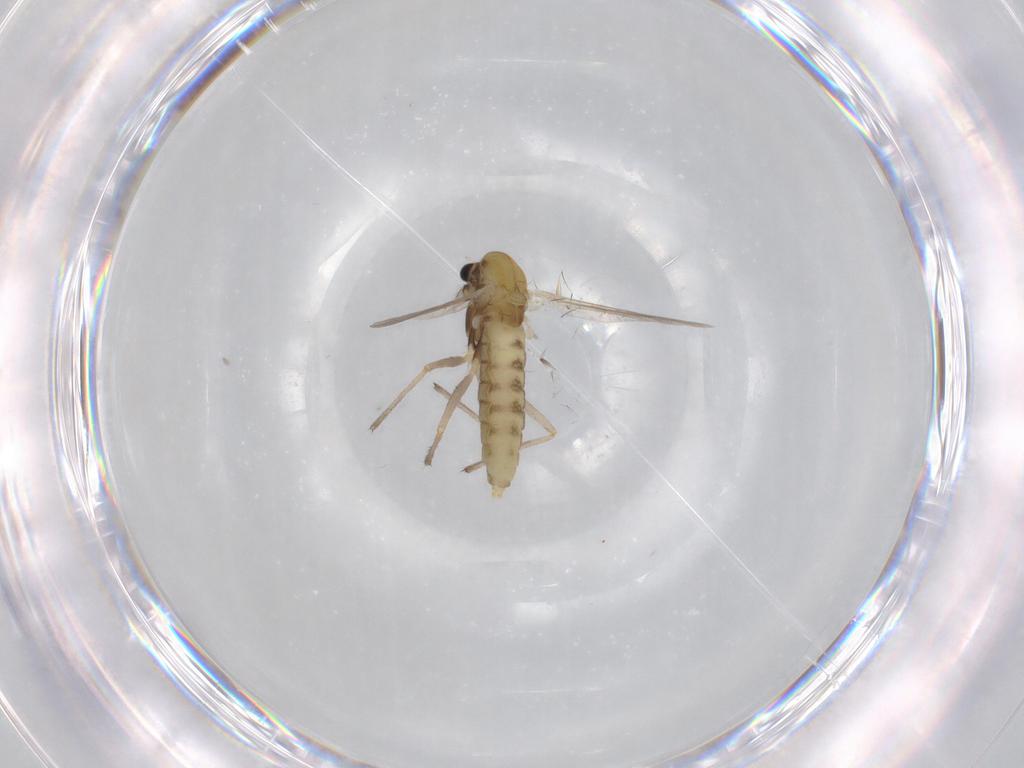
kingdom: Animalia
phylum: Arthropoda
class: Insecta
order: Diptera
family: Chironomidae
